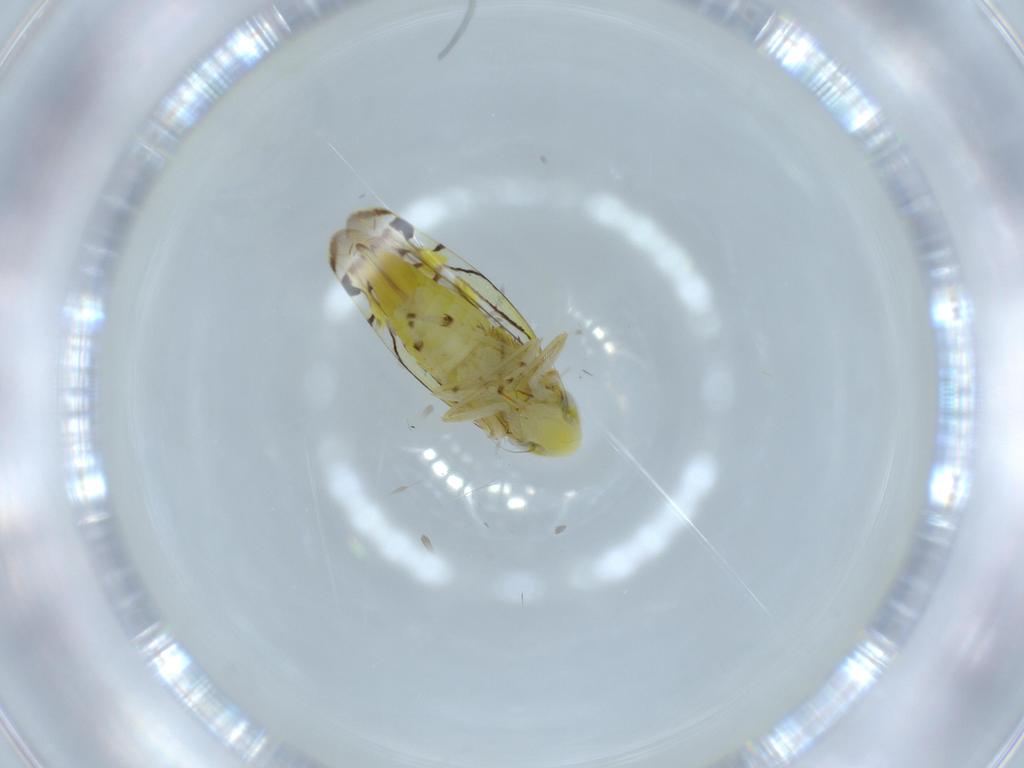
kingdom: Animalia
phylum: Arthropoda
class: Insecta
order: Hemiptera
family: Cicadellidae
